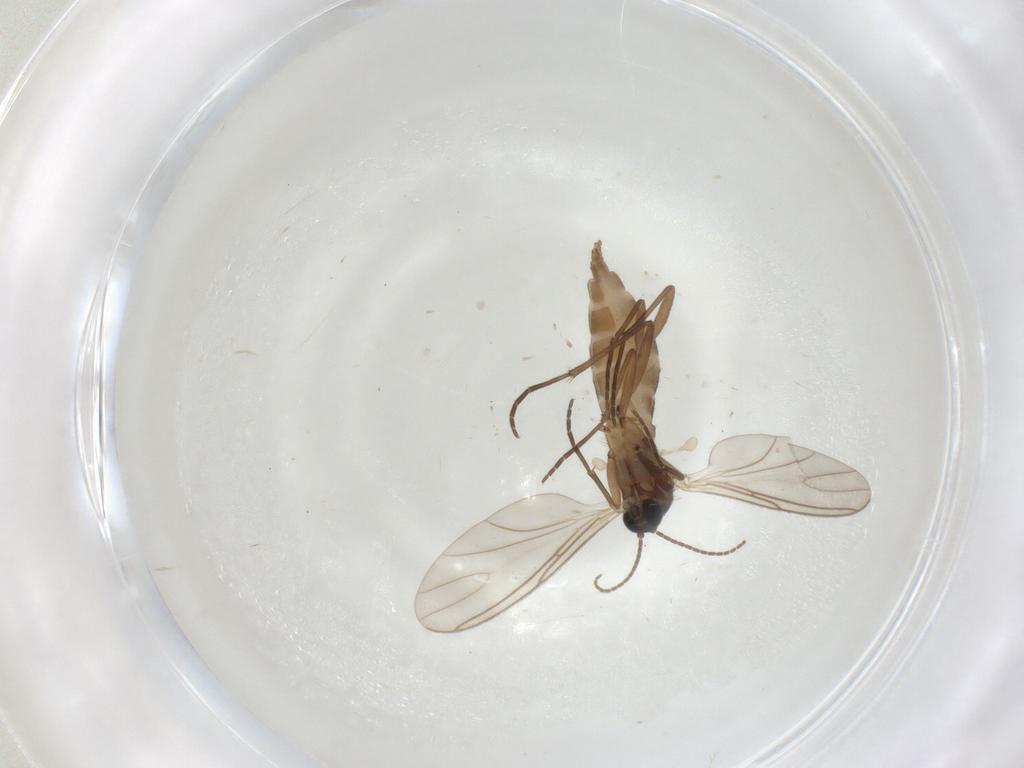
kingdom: Animalia
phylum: Arthropoda
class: Insecta
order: Diptera
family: Sciaridae
